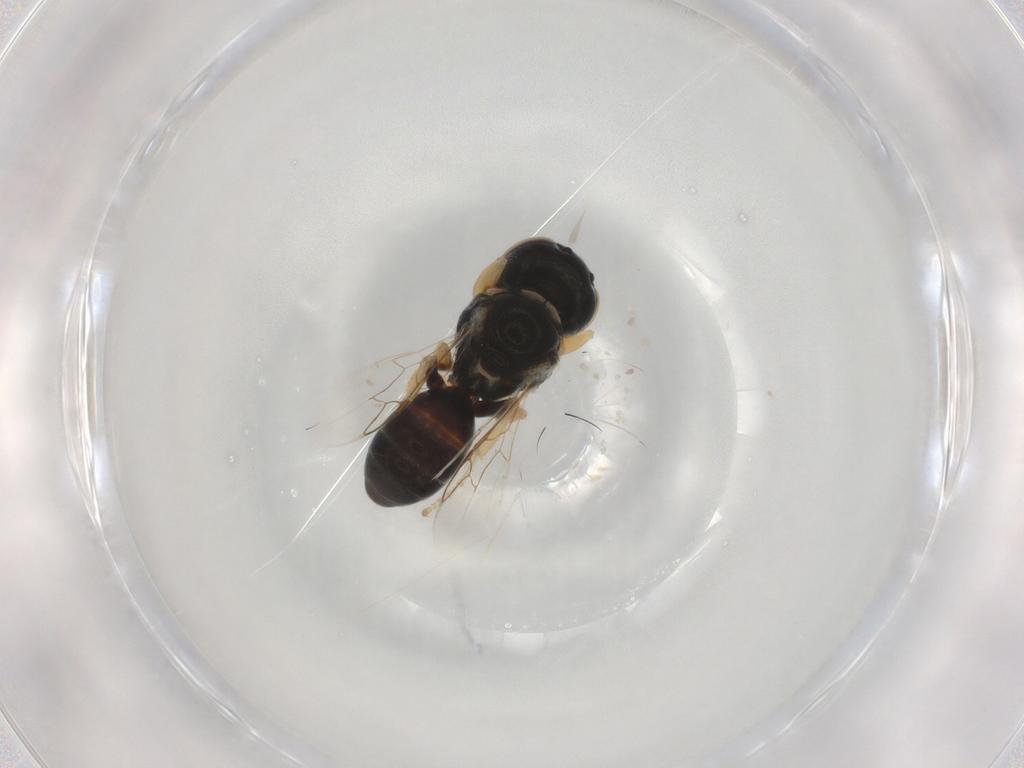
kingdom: Animalia
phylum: Arthropoda
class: Insecta
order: Hymenoptera
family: Crabronidae
